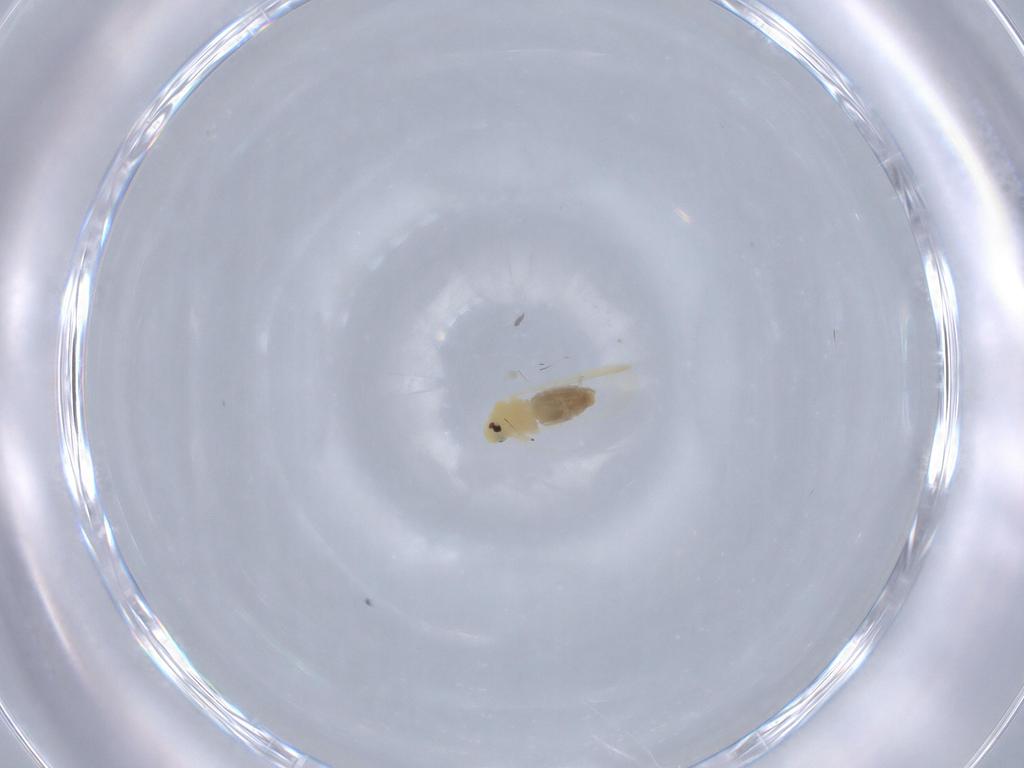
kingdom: Animalia
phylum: Arthropoda
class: Insecta
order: Hemiptera
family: Aleyrodidae
